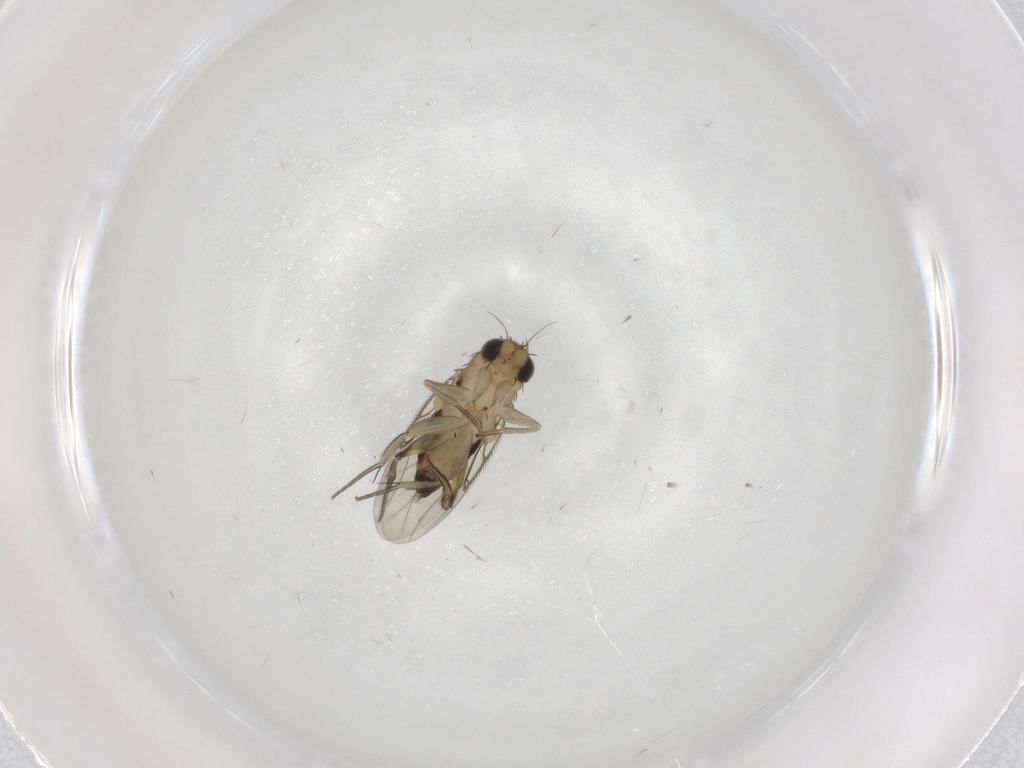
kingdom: Animalia
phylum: Arthropoda
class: Insecta
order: Diptera
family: Phoridae
